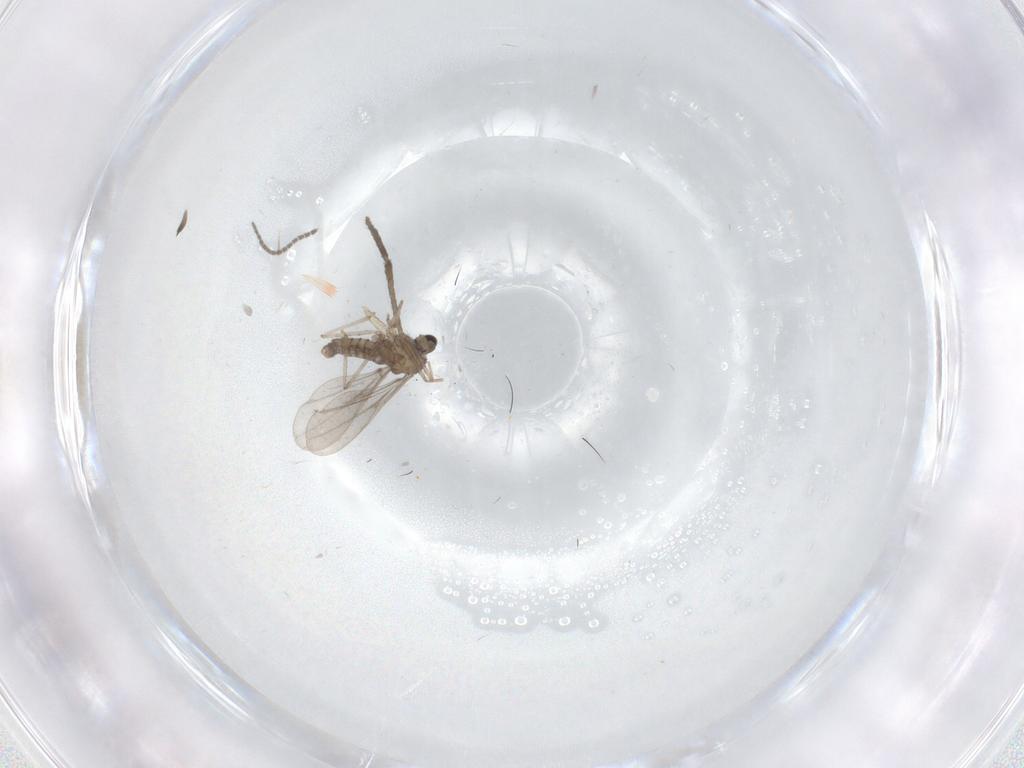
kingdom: Animalia
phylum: Arthropoda
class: Insecta
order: Diptera
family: Cecidomyiidae
